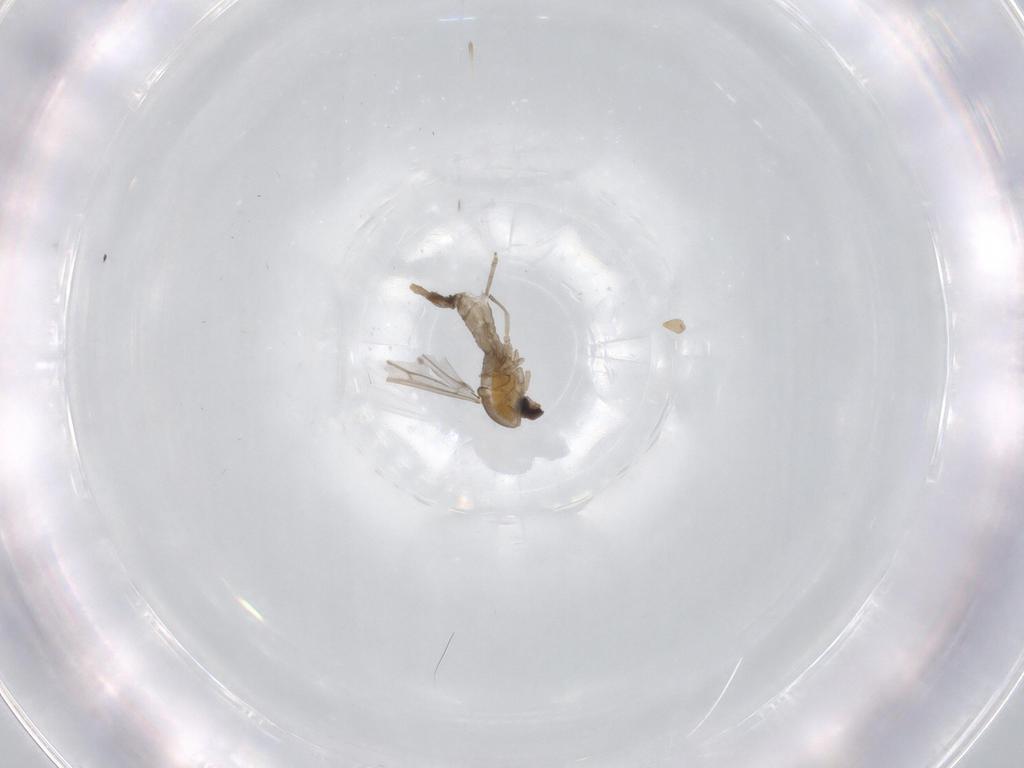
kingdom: Animalia
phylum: Arthropoda
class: Insecta
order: Diptera
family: Cecidomyiidae
